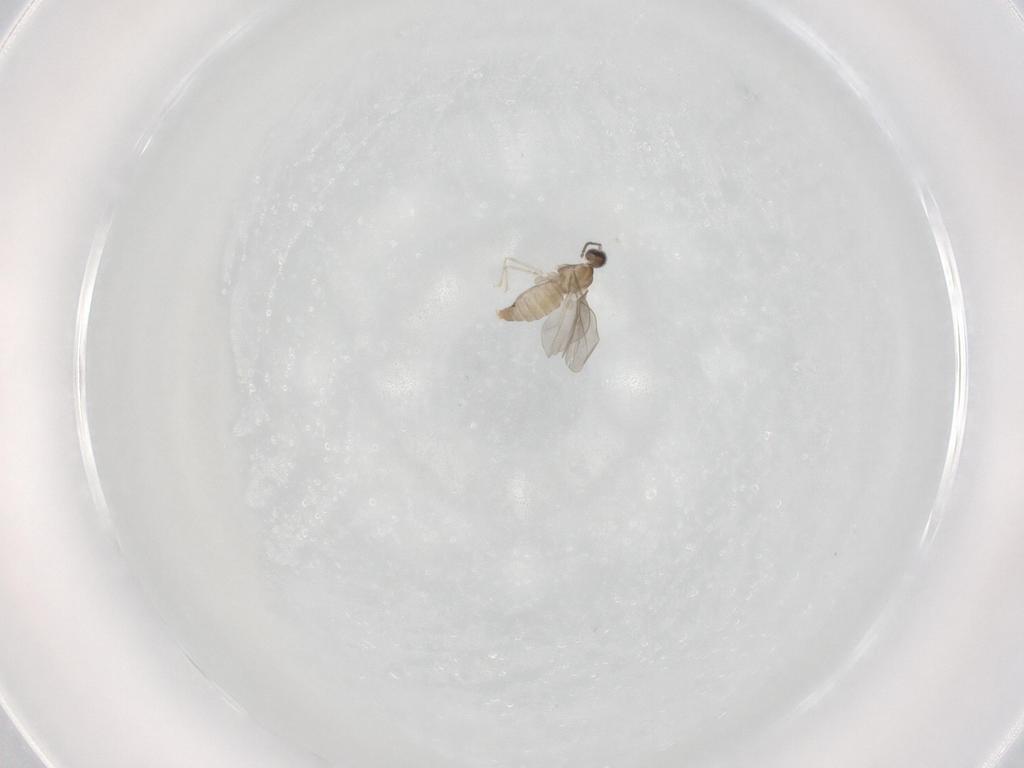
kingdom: Animalia
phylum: Arthropoda
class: Insecta
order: Diptera
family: Cecidomyiidae
